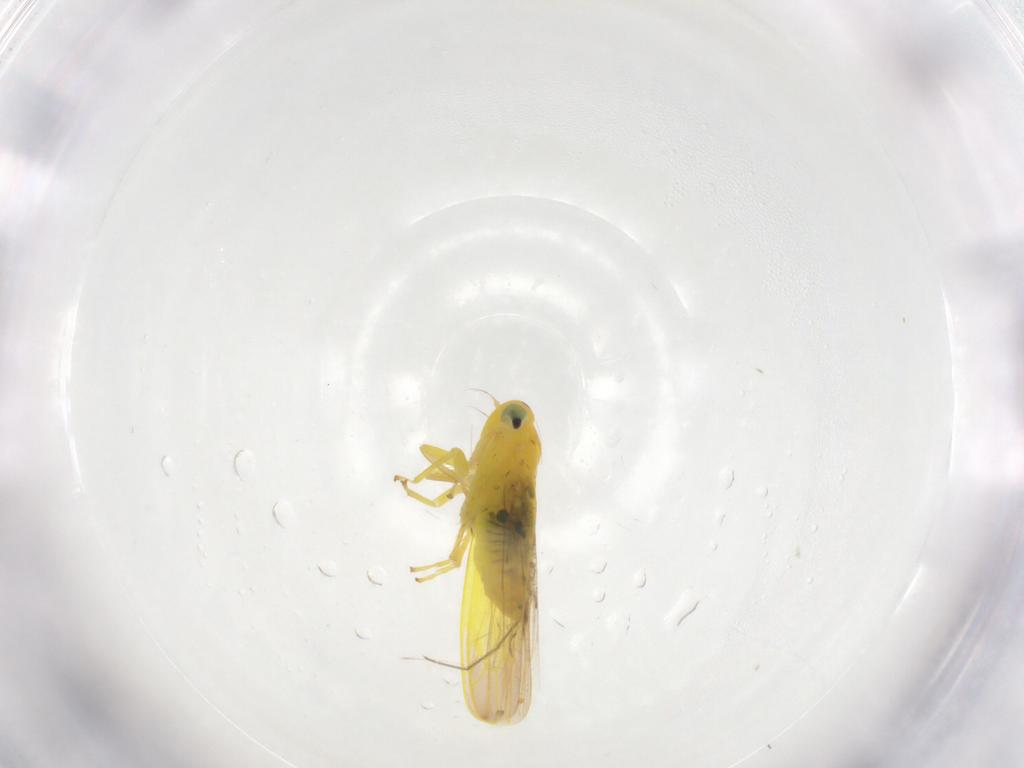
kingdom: Animalia
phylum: Arthropoda
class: Insecta
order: Hemiptera
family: Cicadellidae
